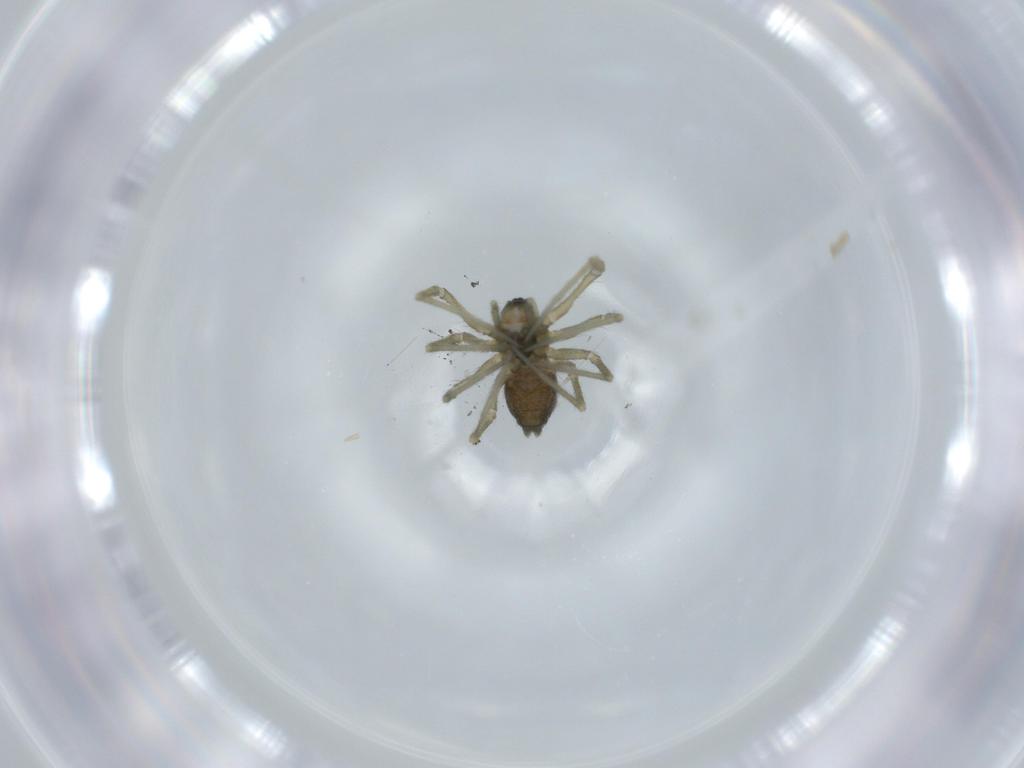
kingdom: Animalia
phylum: Arthropoda
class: Arachnida
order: Araneae
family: Linyphiidae
